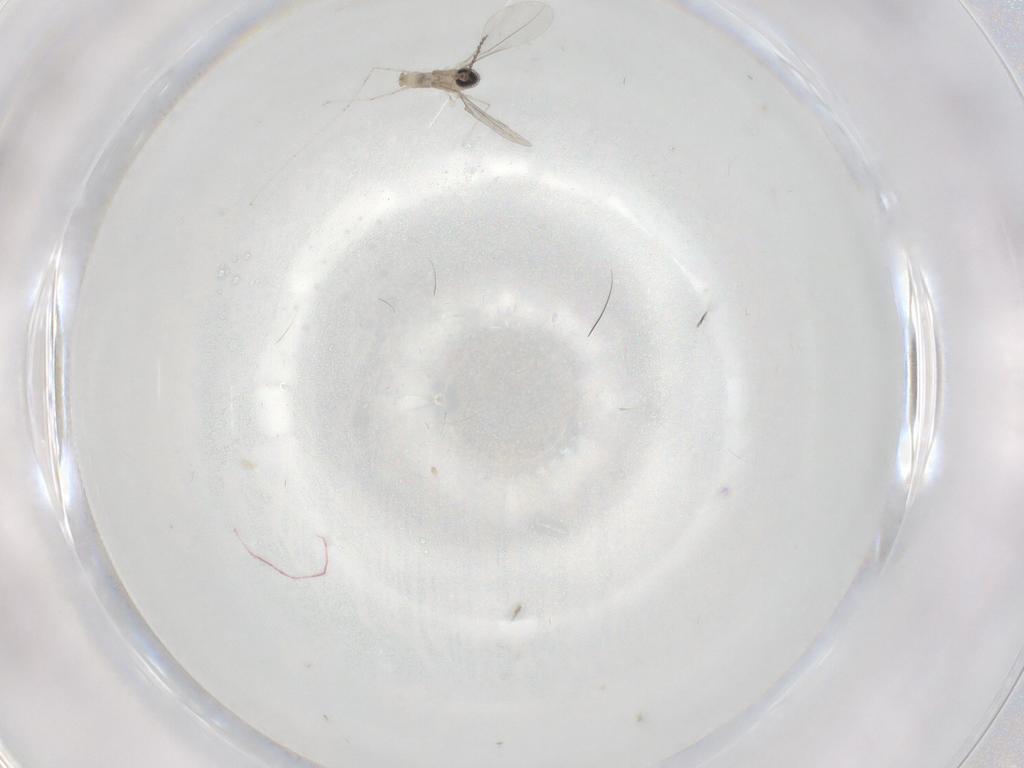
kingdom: Animalia
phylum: Arthropoda
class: Insecta
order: Diptera
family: Cecidomyiidae
